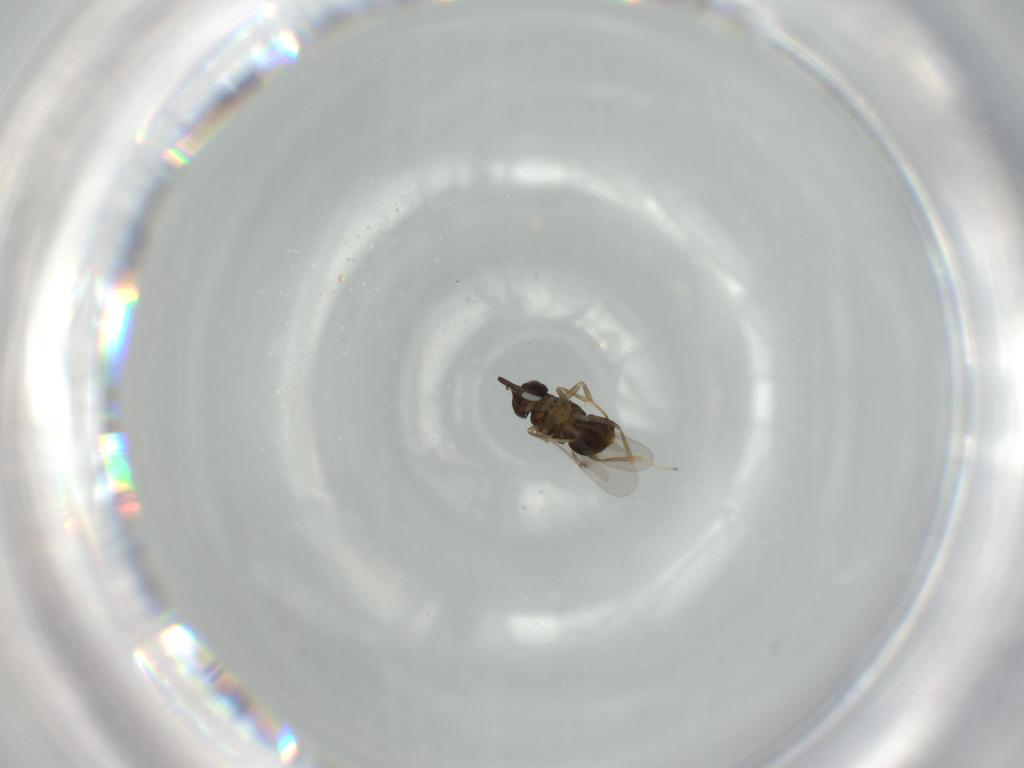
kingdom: Animalia
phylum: Arthropoda
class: Insecta
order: Hymenoptera
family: Encyrtidae
